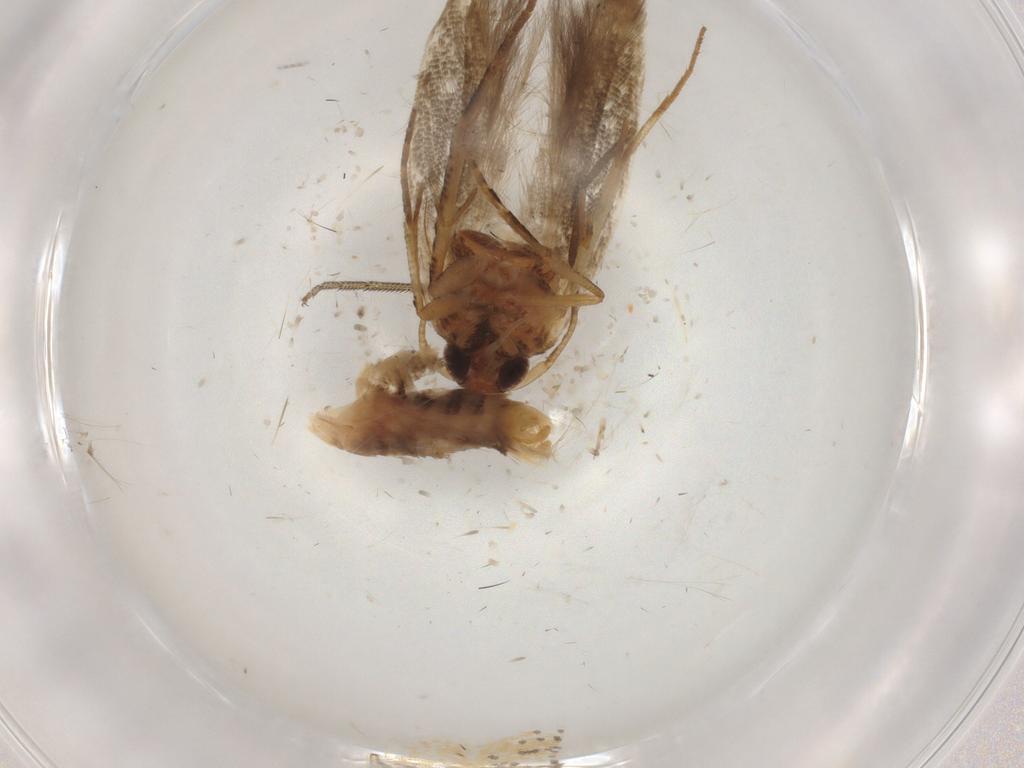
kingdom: Animalia
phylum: Arthropoda
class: Insecta
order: Lepidoptera
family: Cosmopterigidae
